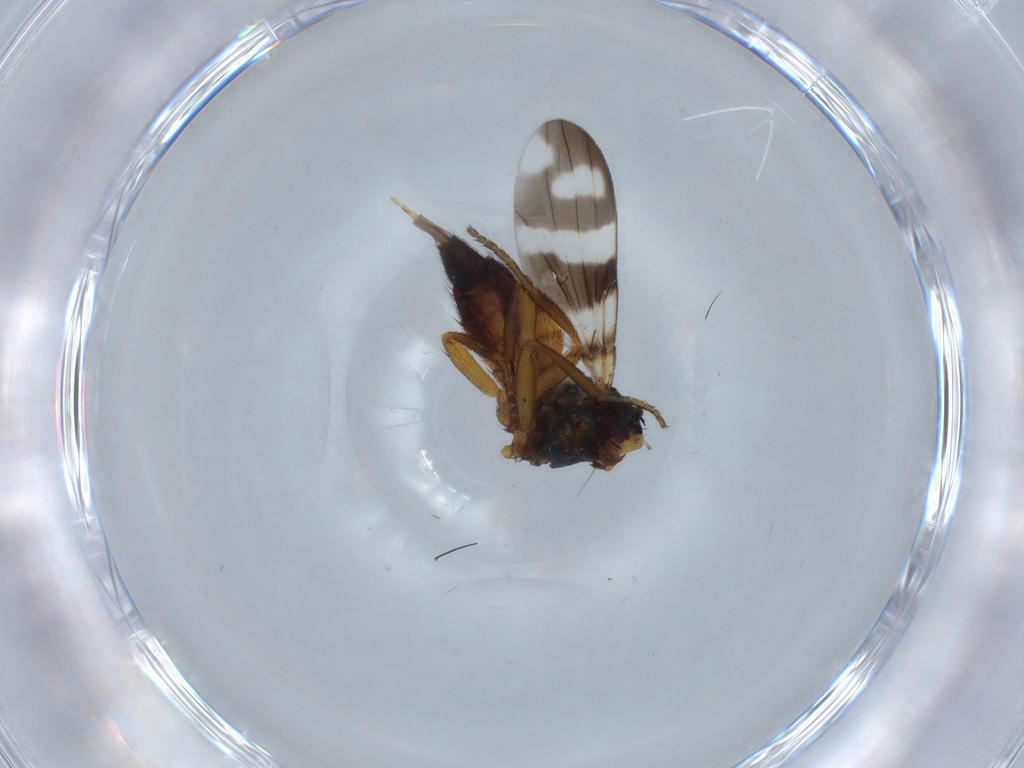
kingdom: Animalia
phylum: Arthropoda
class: Insecta
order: Diptera
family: Ulidiidae
